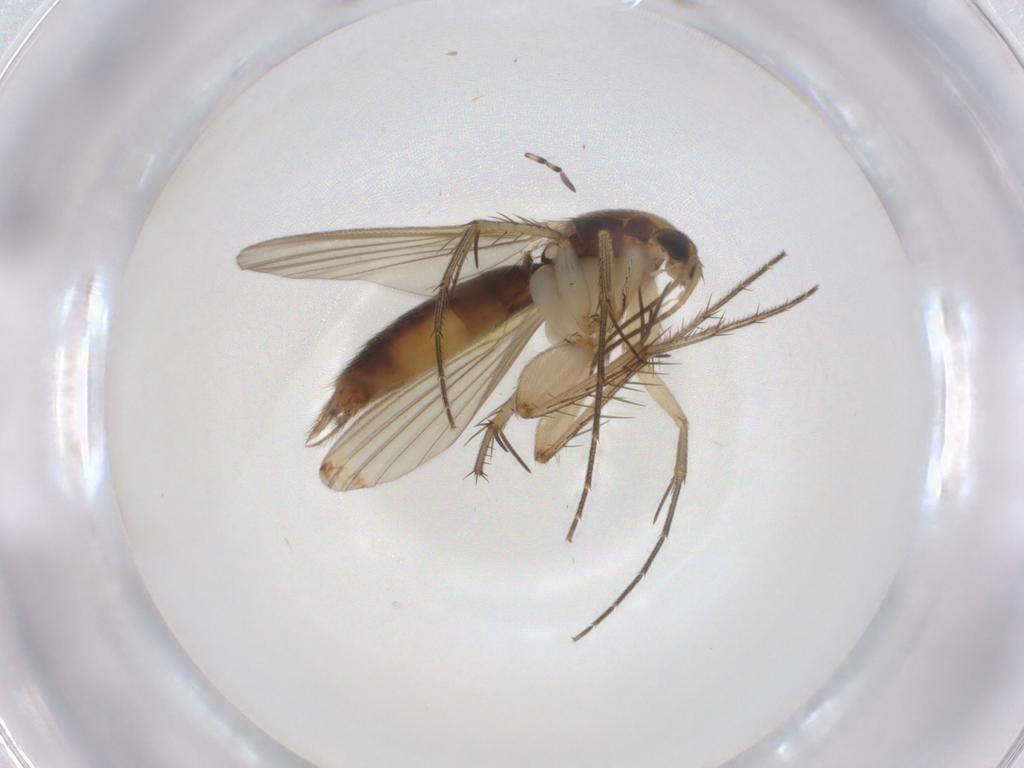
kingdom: Animalia
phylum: Arthropoda
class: Insecta
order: Diptera
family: Mycetophilidae
